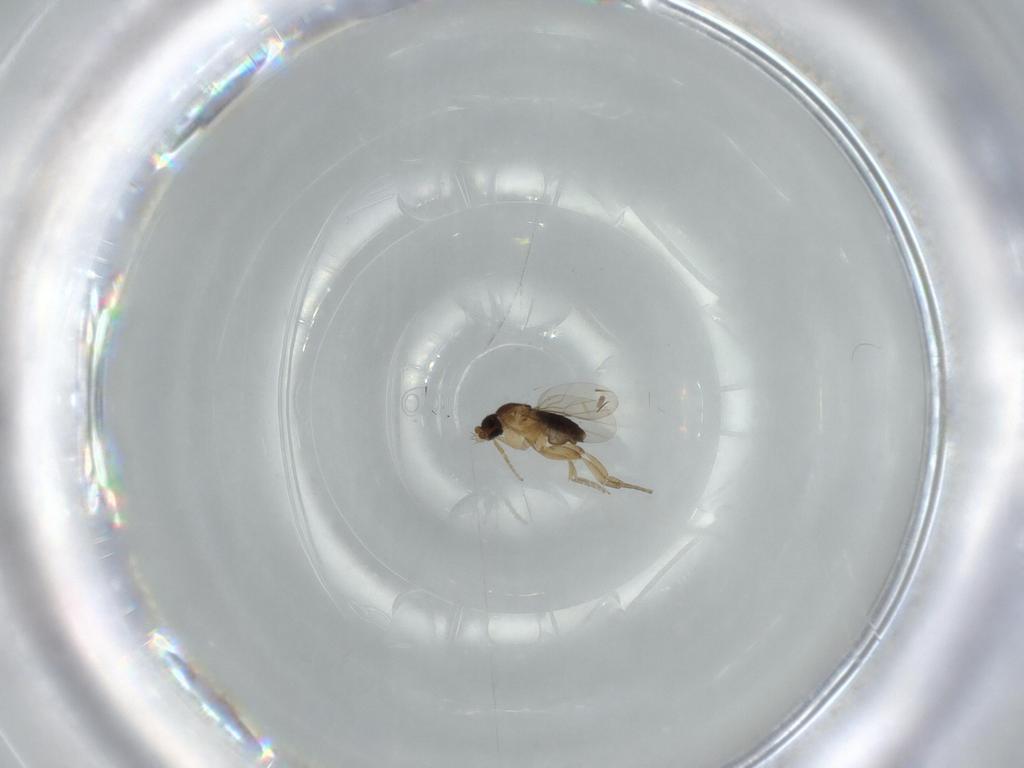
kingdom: Animalia
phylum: Arthropoda
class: Insecta
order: Diptera
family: Phoridae
